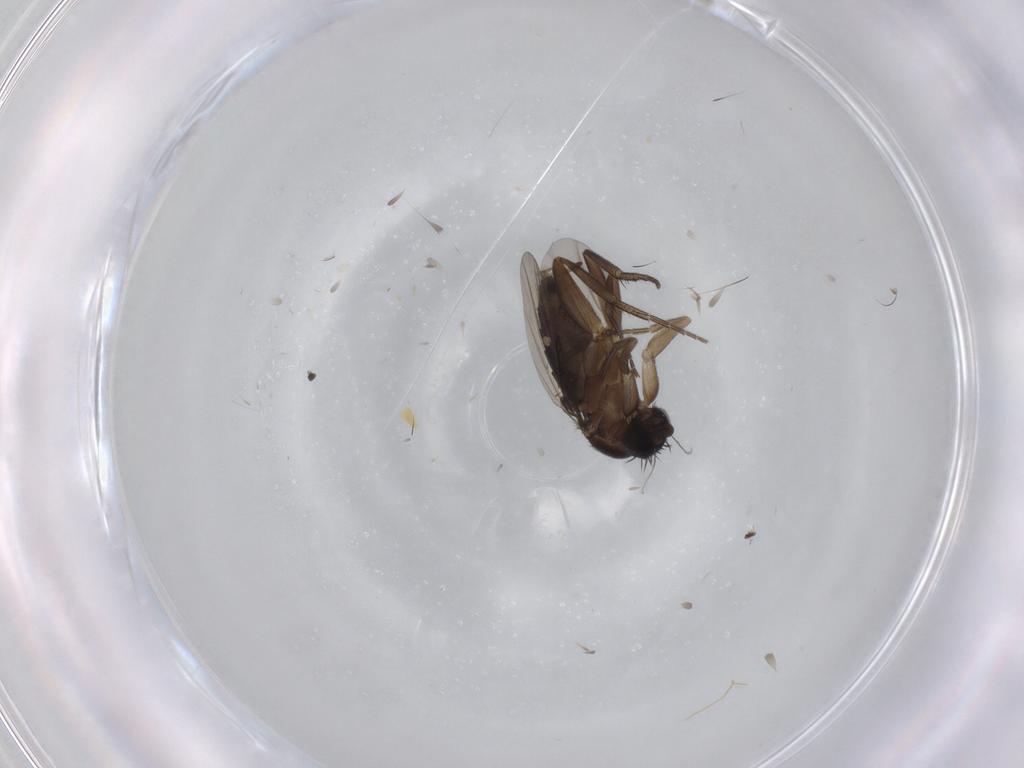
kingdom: Animalia
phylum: Arthropoda
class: Insecta
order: Diptera
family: Phoridae
